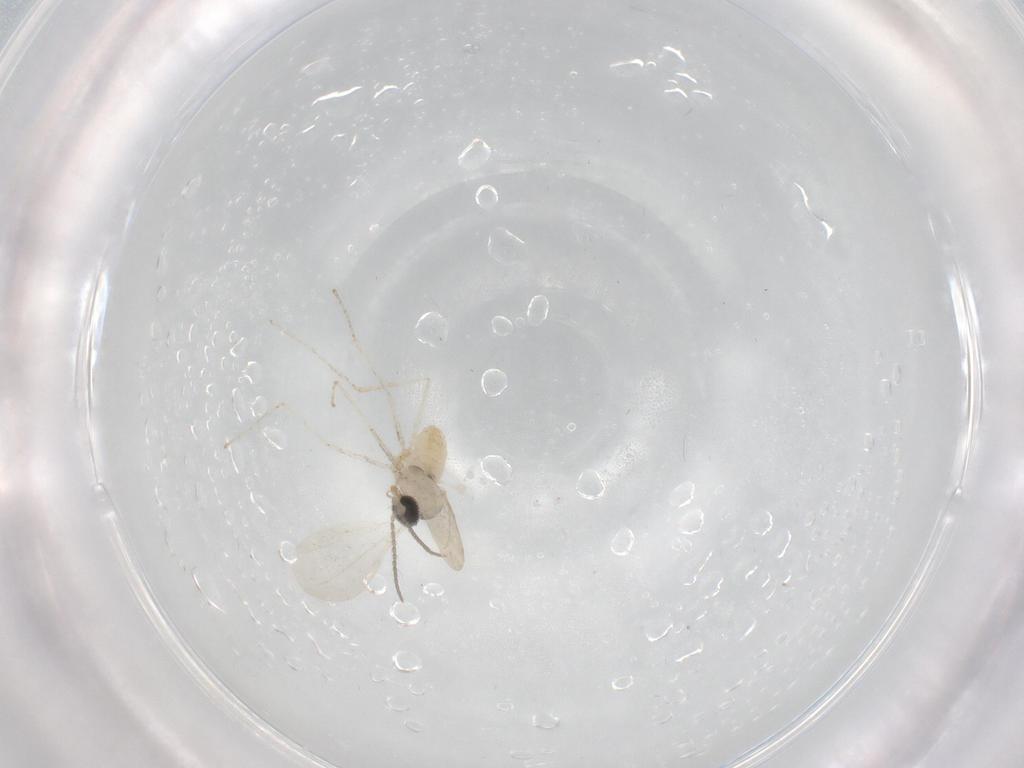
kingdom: Animalia
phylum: Arthropoda
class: Insecta
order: Diptera
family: Cecidomyiidae
